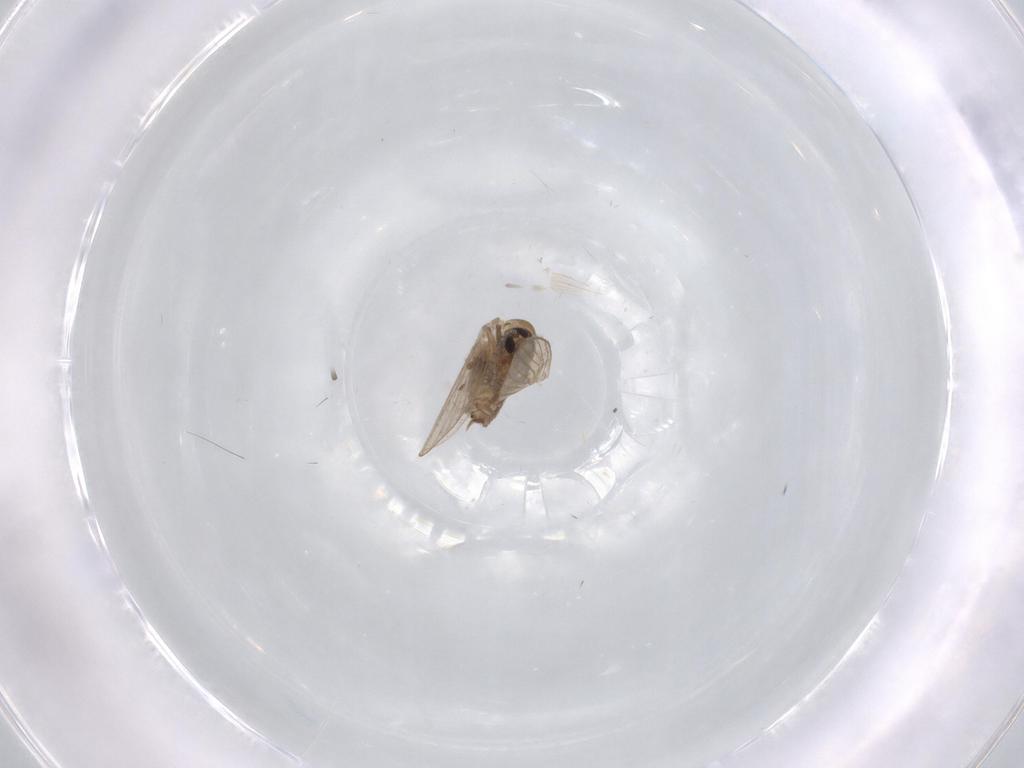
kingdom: Animalia
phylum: Arthropoda
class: Insecta
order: Diptera
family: Psychodidae
